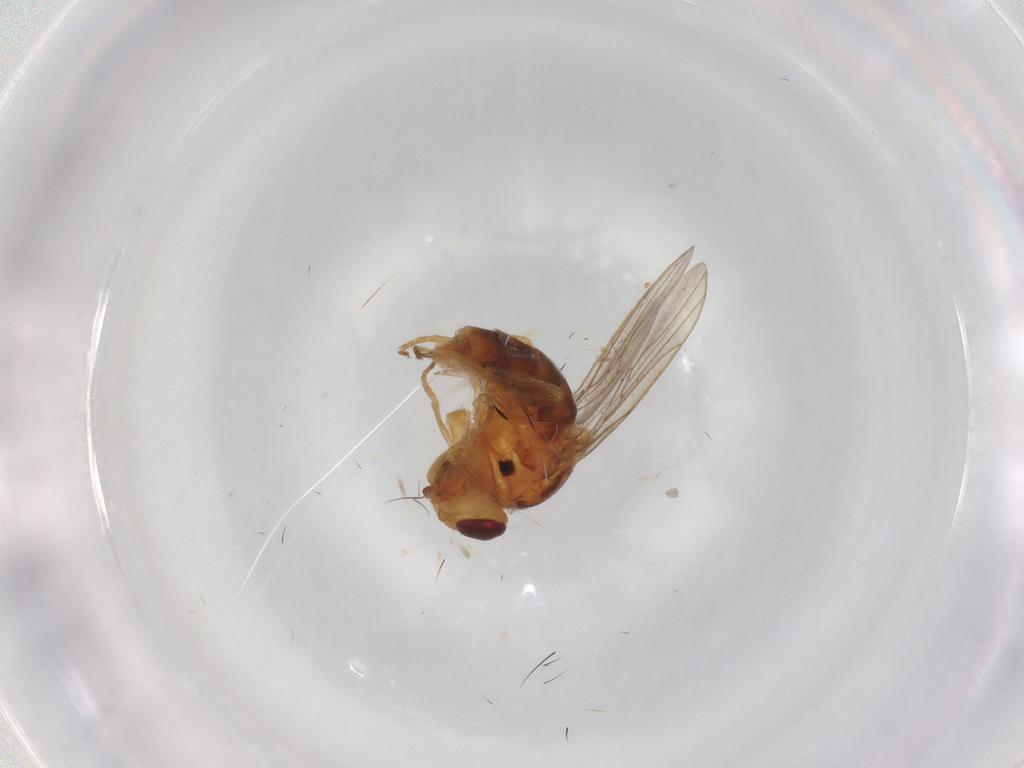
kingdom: Animalia
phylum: Arthropoda
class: Insecta
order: Diptera
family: Chloropidae
